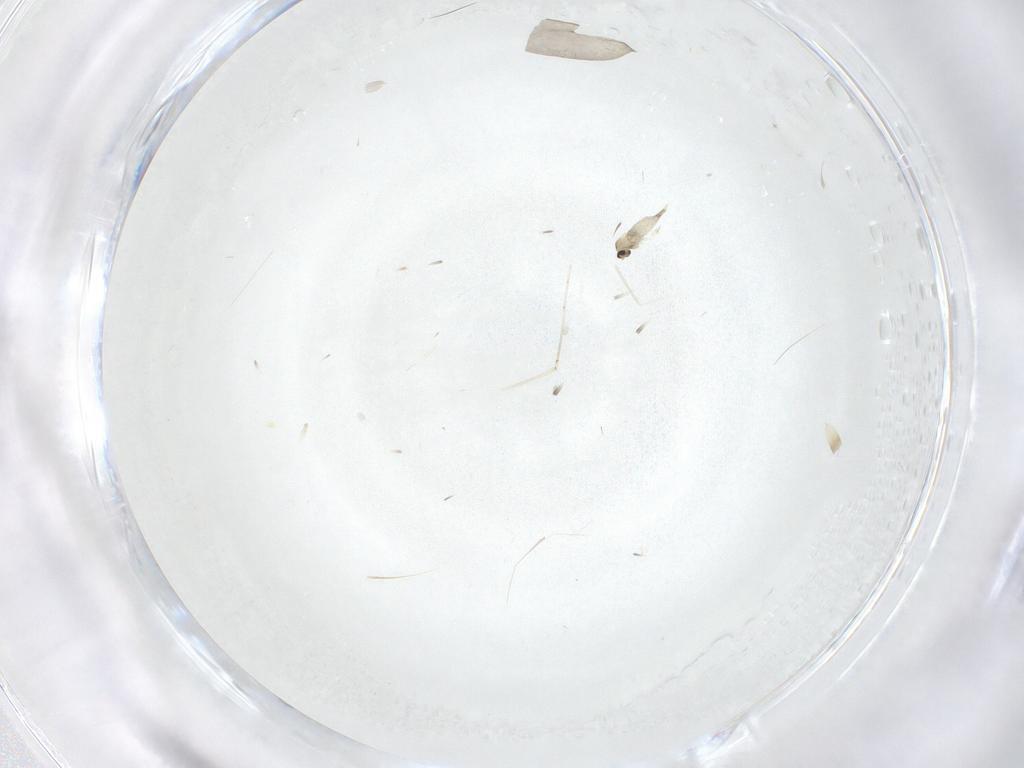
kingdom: Animalia
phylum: Arthropoda
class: Insecta
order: Diptera
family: Cecidomyiidae
